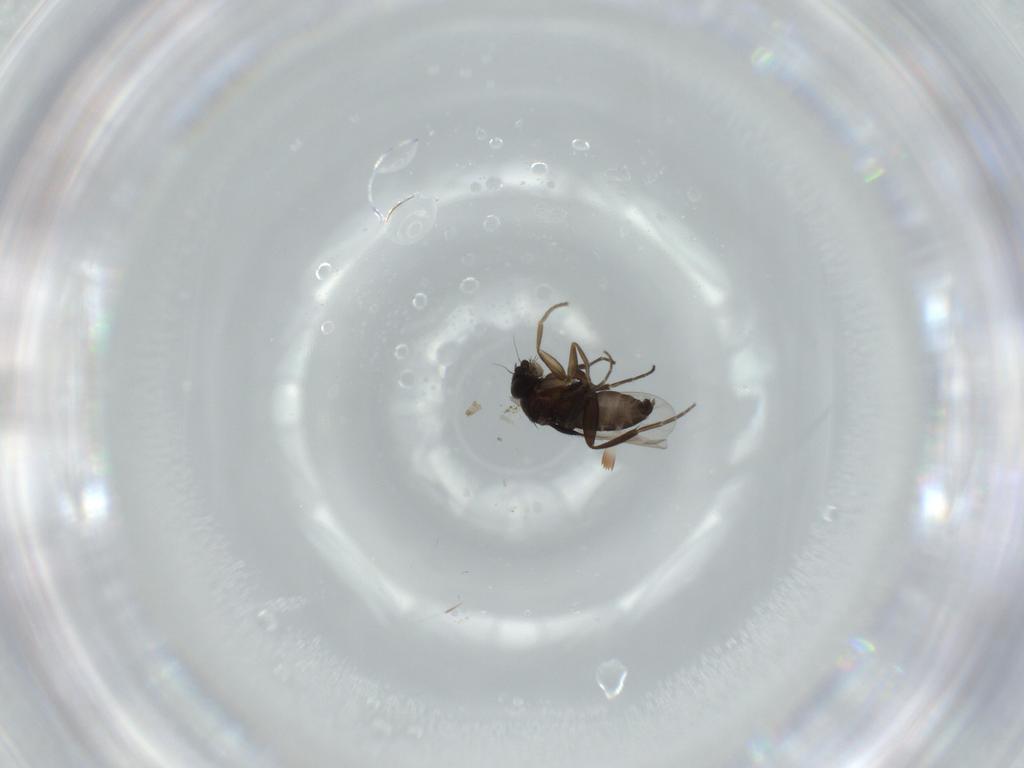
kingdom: Animalia
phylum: Arthropoda
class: Insecta
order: Diptera
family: Phoridae
